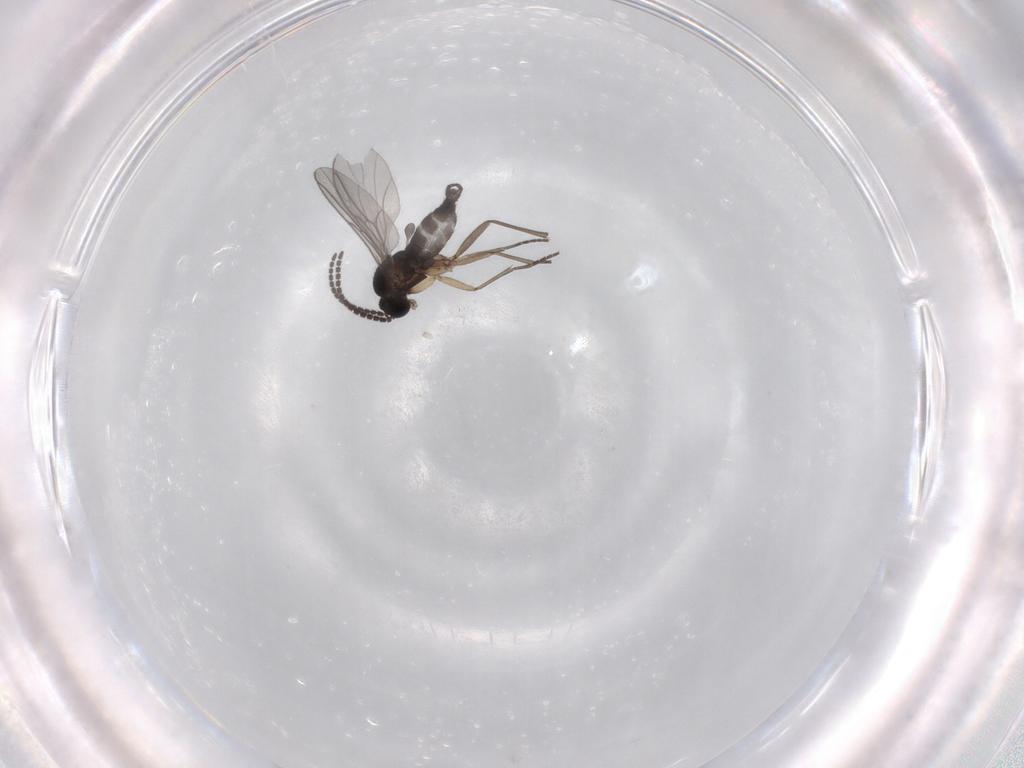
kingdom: Animalia
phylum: Arthropoda
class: Insecta
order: Diptera
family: Sciaridae
